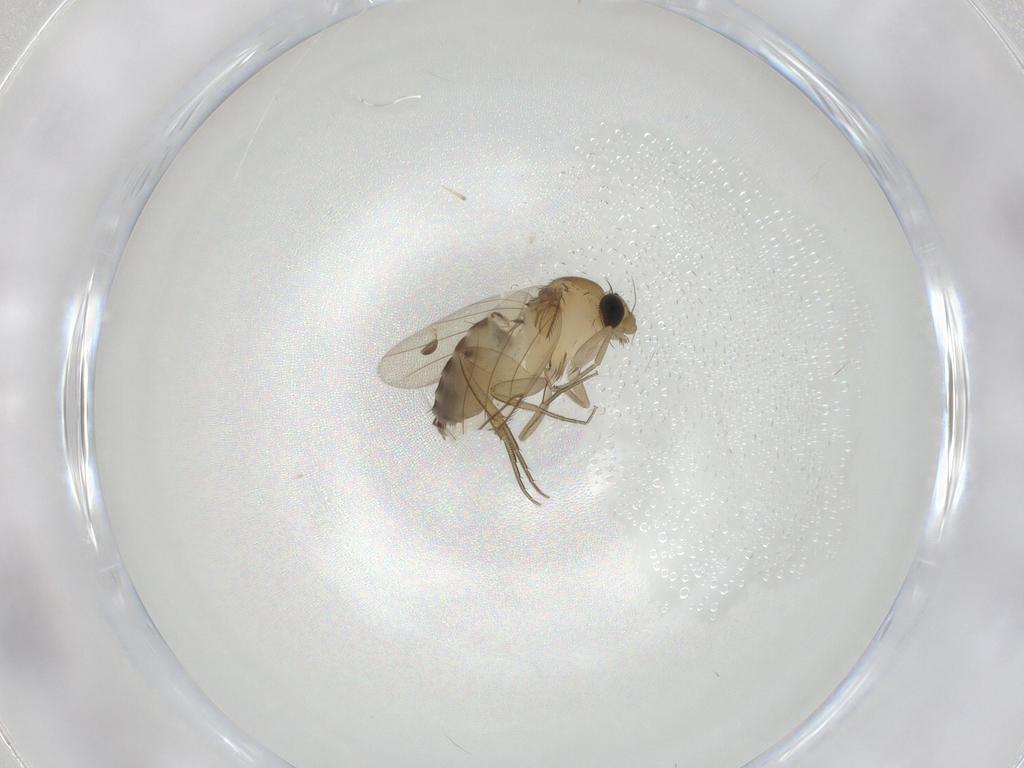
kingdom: Animalia
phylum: Arthropoda
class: Insecta
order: Diptera
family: Phoridae
